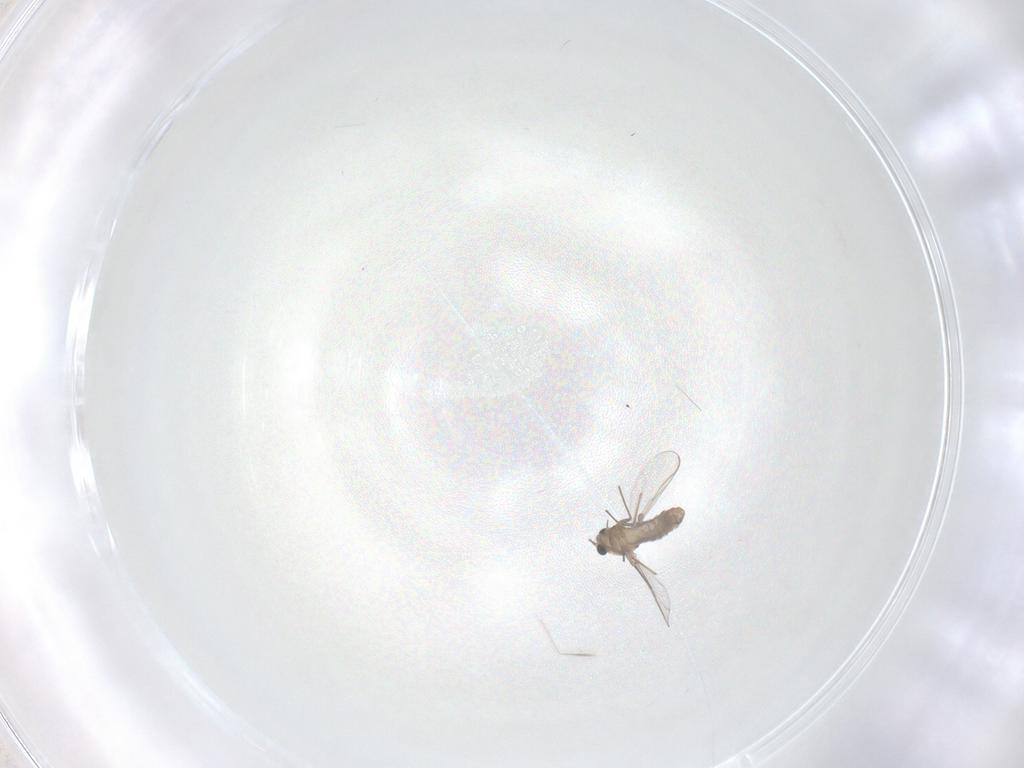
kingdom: Animalia
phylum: Arthropoda
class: Insecta
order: Diptera
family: Chironomidae
